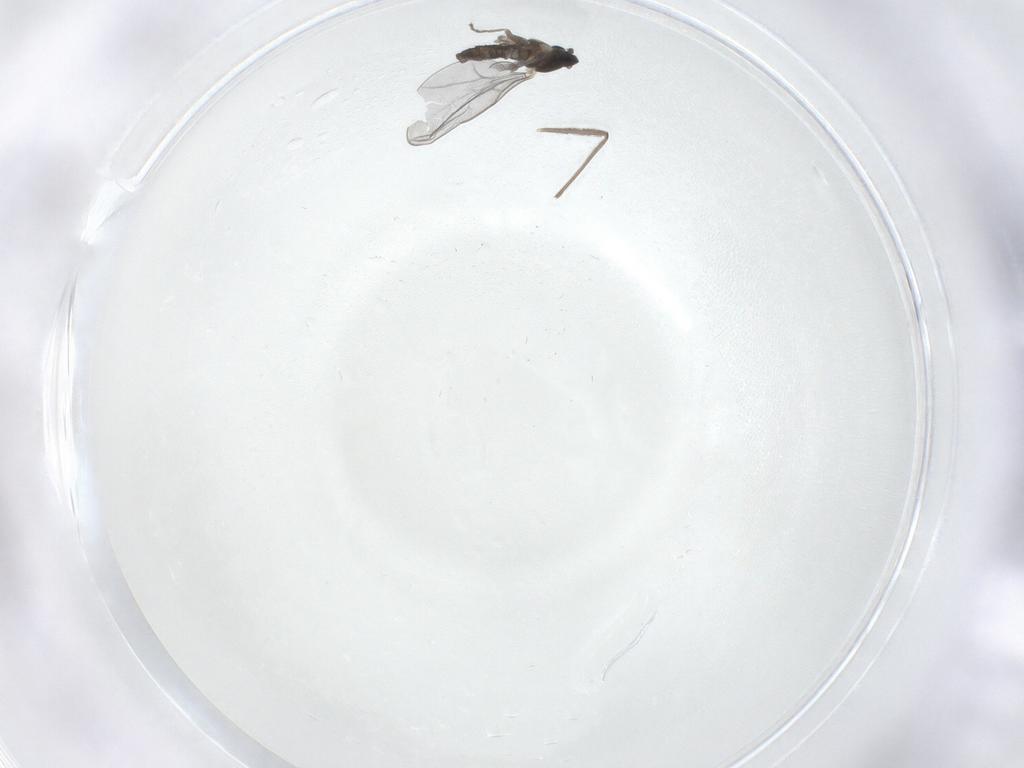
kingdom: Animalia
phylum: Arthropoda
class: Insecta
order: Diptera
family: Cecidomyiidae
